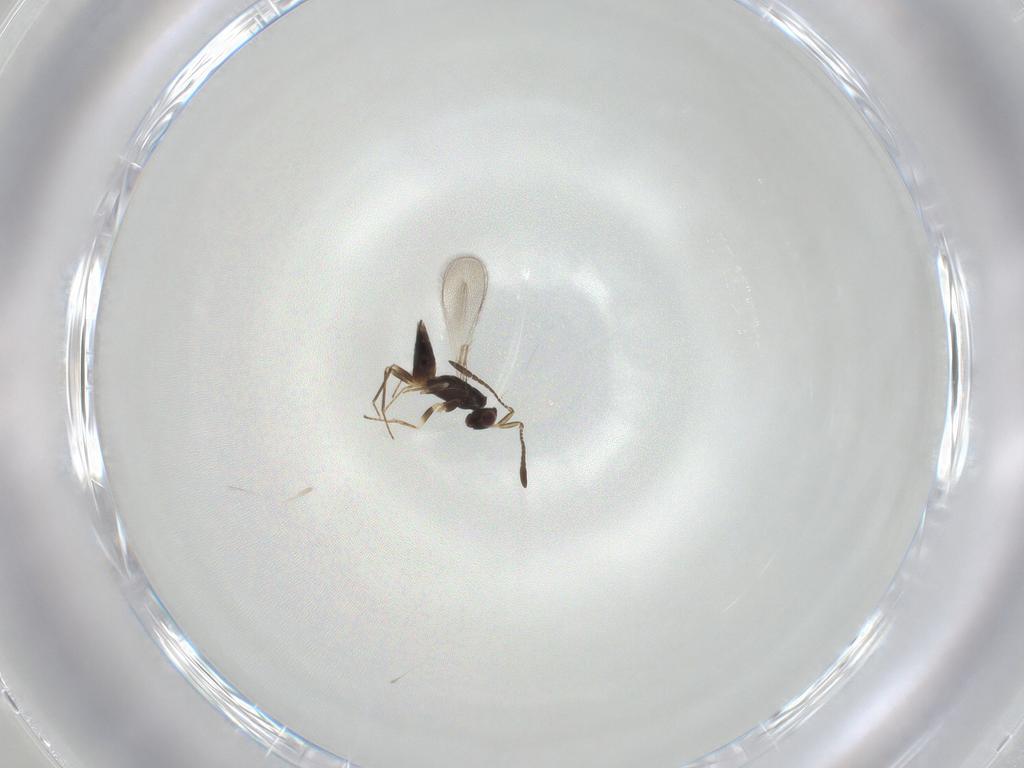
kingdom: Animalia
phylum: Arthropoda
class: Insecta
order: Hymenoptera
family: Mymaridae
